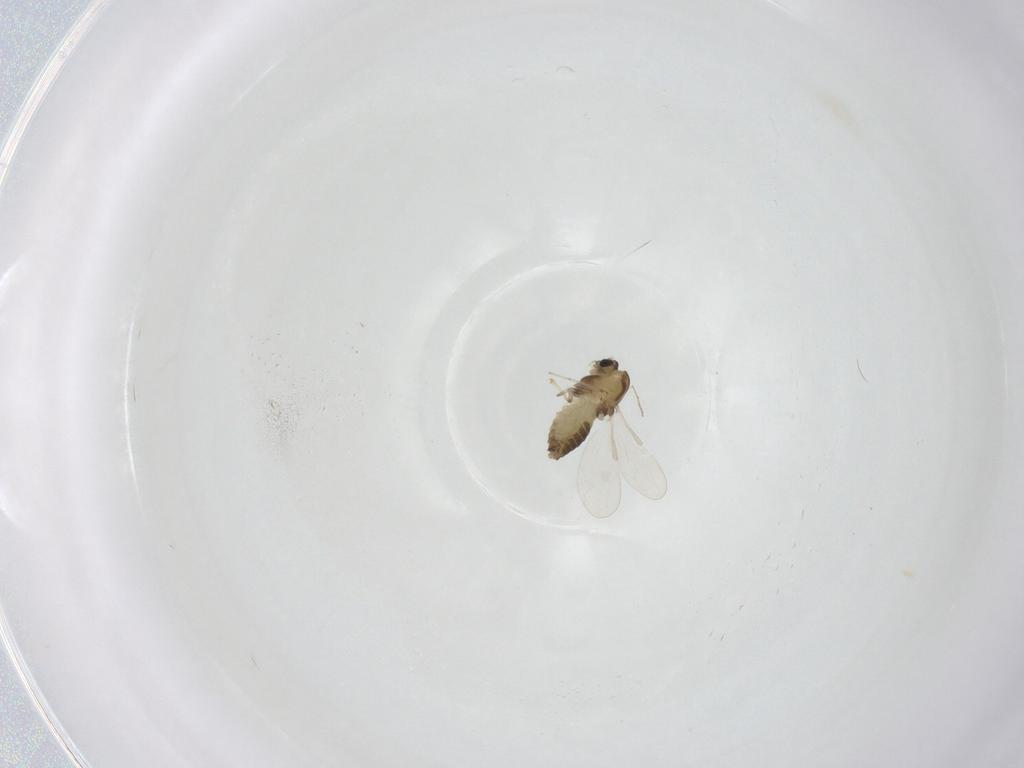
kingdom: Animalia
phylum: Arthropoda
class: Insecta
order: Diptera
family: Chironomidae
